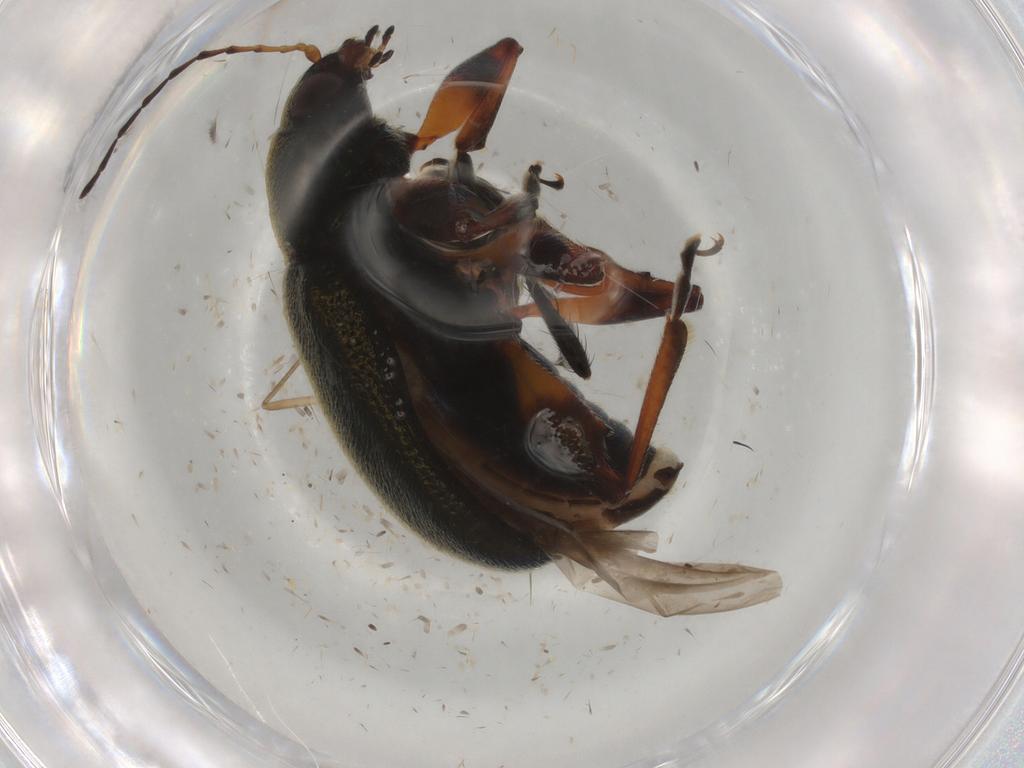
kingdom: Animalia
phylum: Arthropoda
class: Insecta
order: Coleoptera
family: Chrysomelidae
